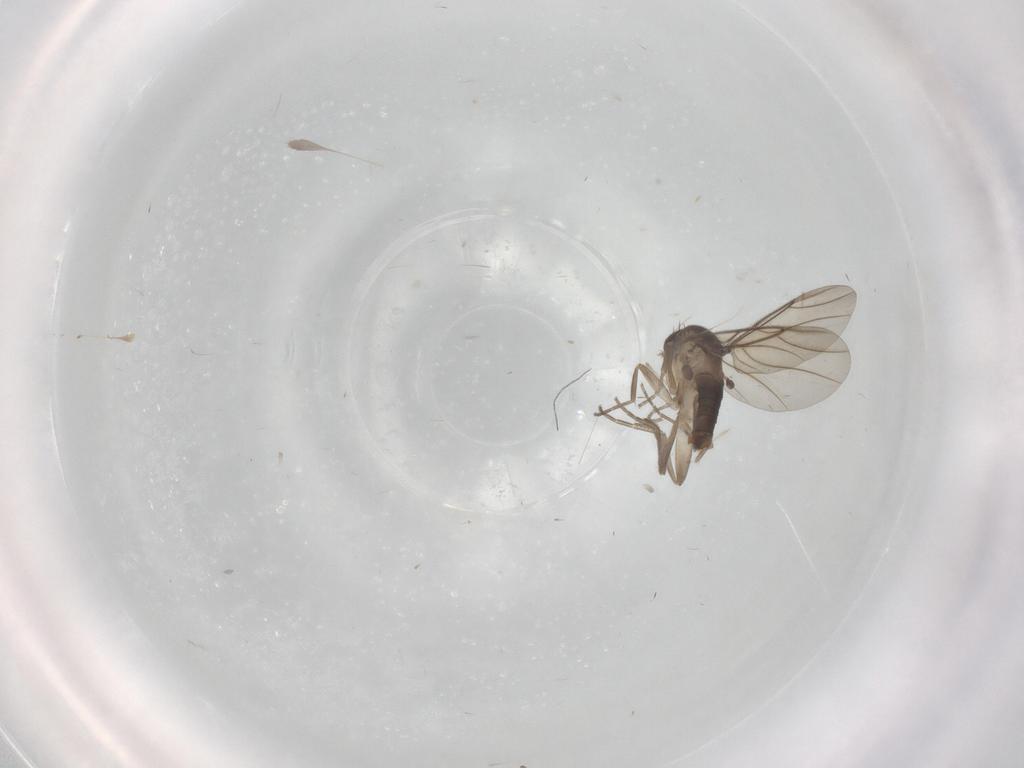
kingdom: Animalia
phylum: Arthropoda
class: Insecta
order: Diptera
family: Phoridae
